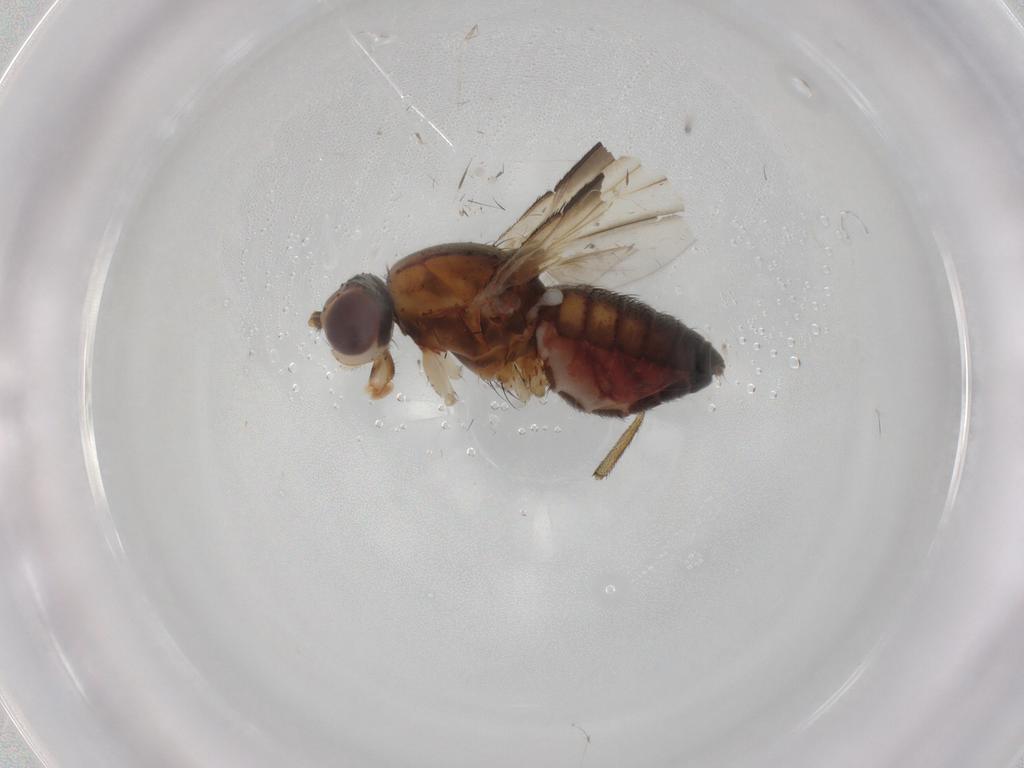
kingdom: Animalia
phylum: Arthropoda
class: Insecta
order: Diptera
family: Heleomyzidae
